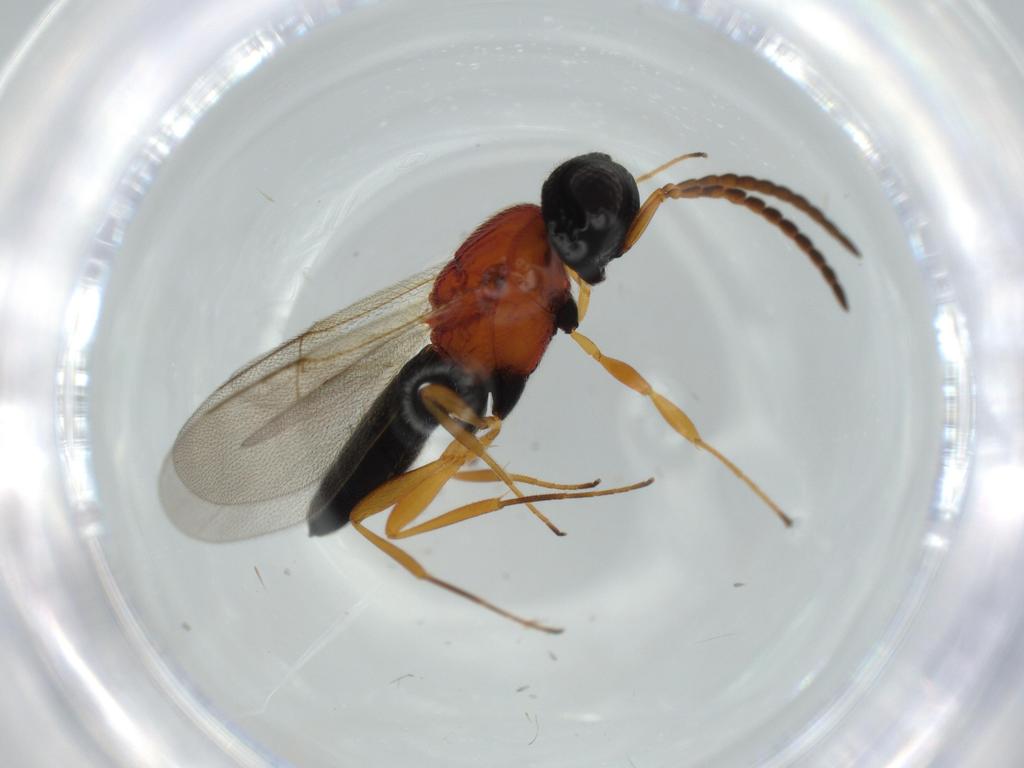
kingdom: Animalia
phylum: Arthropoda
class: Insecta
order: Hymenoptera
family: Scelionidae
